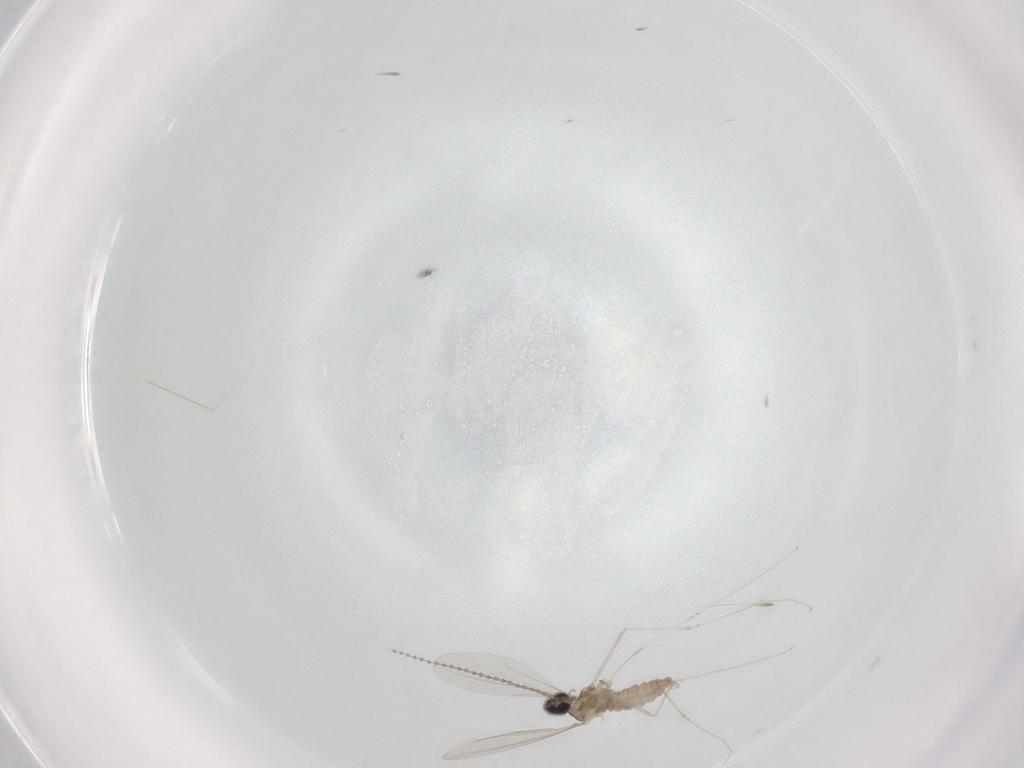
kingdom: Animalia
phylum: Arthropoda
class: Insecta
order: Diptera
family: Cecidomyiidae
